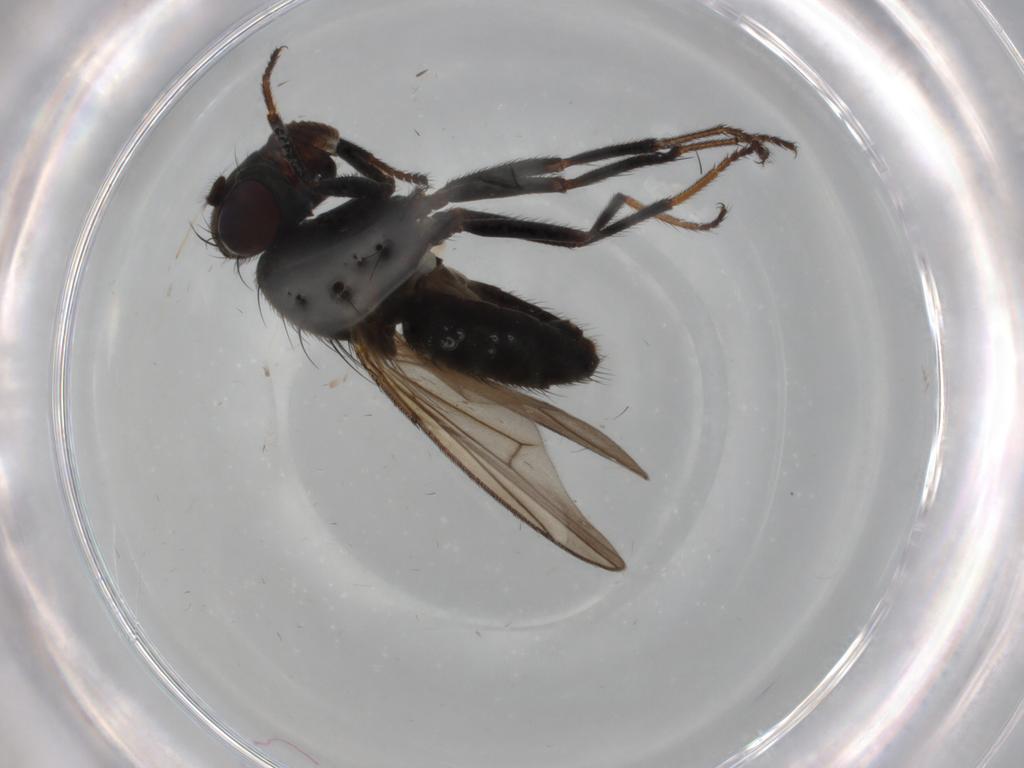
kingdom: Animalia
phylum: Arthropoda
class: Insecta
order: Diptera
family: Ephydridae
